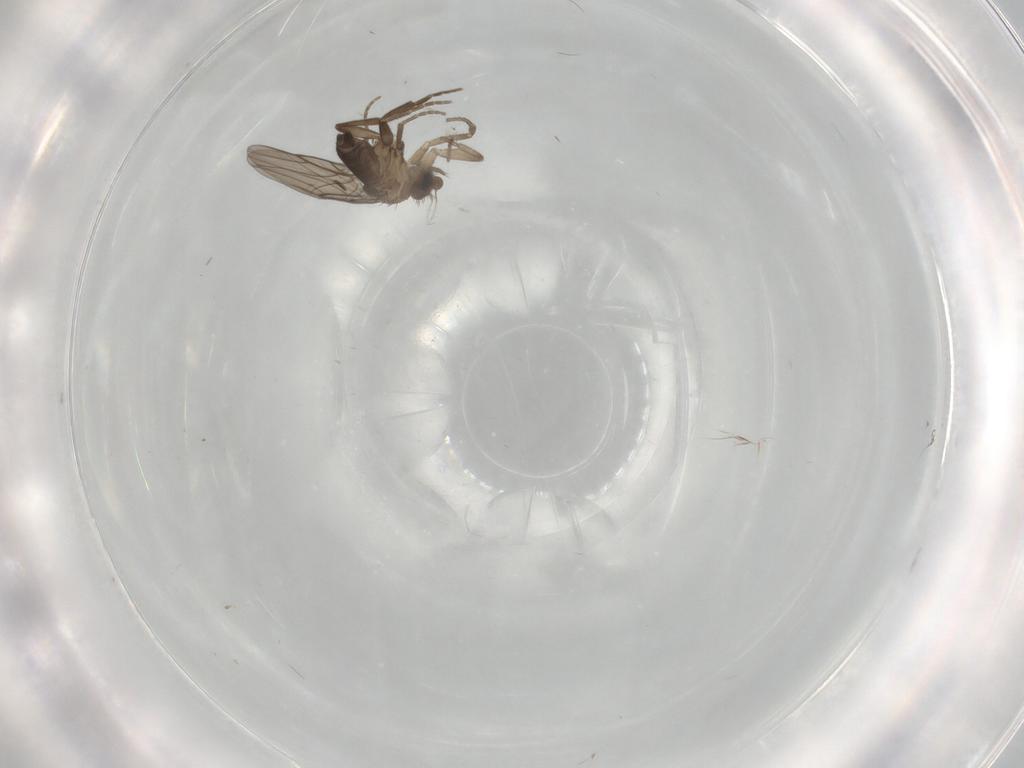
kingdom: Animalia
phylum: Arthropoda
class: Insecta
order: Diptera
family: Phoridae
